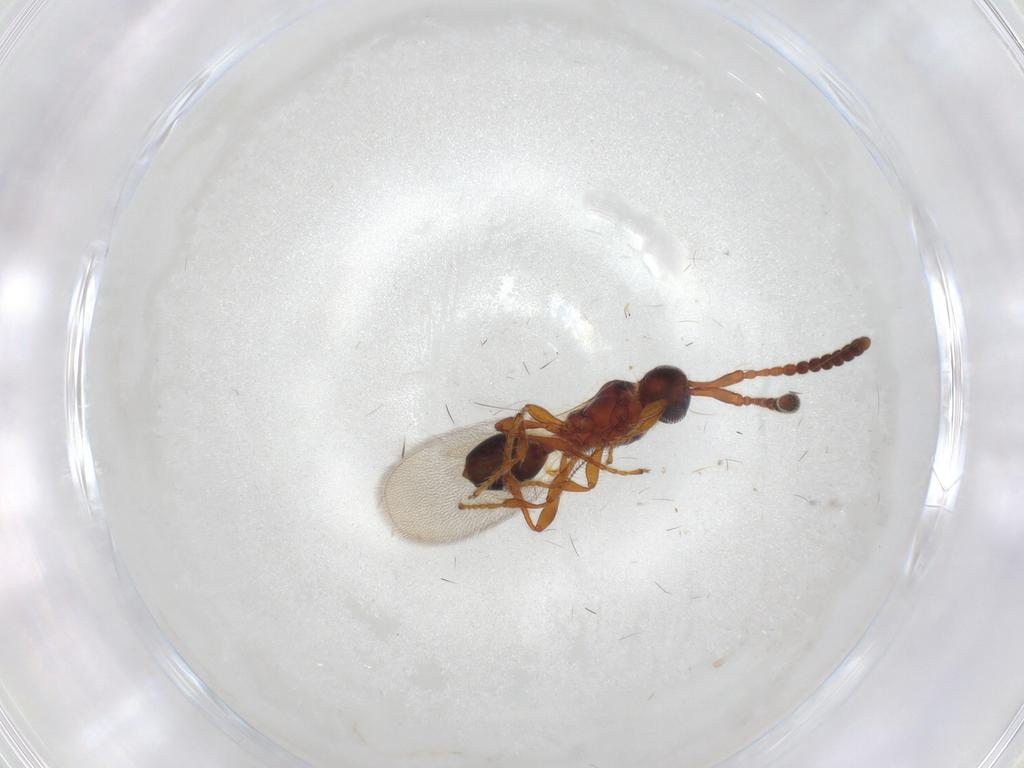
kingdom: Animalia
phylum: Arthropoda
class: Insecta
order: Hymenoptera
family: Diapriidae
